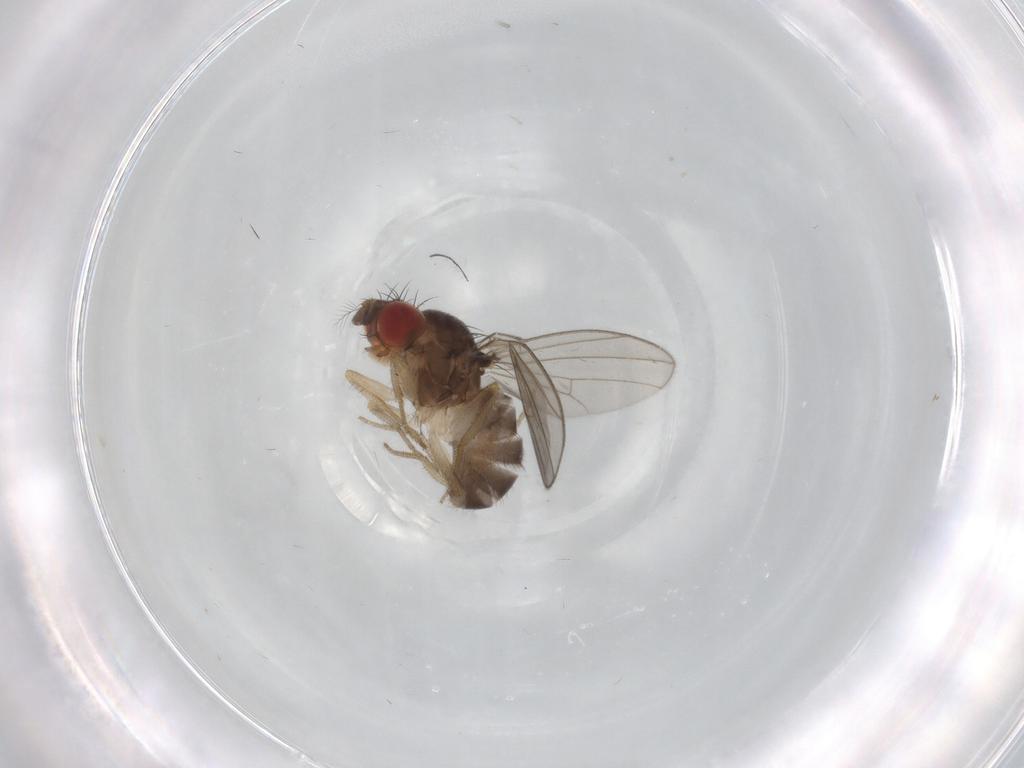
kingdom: Animalia
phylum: Arthropoda
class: Insecta
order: Diptera
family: Drosophilidae
